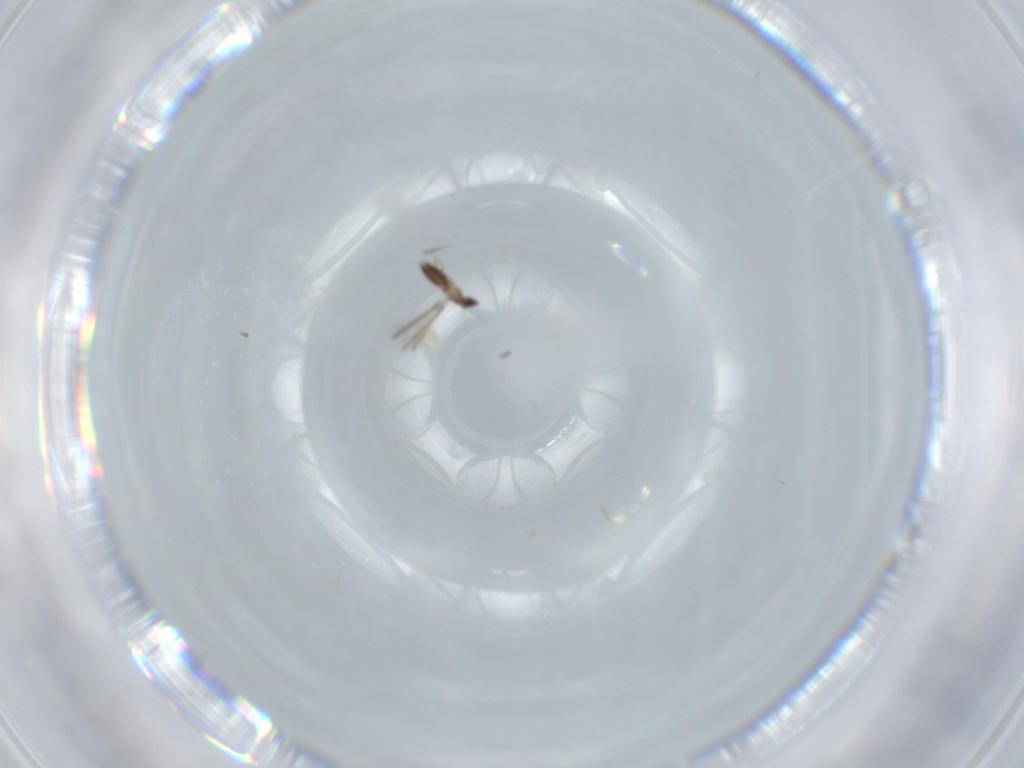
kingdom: Animalia
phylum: Arthropoda
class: Insecta
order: Hymenoptera
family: Mymaridae
